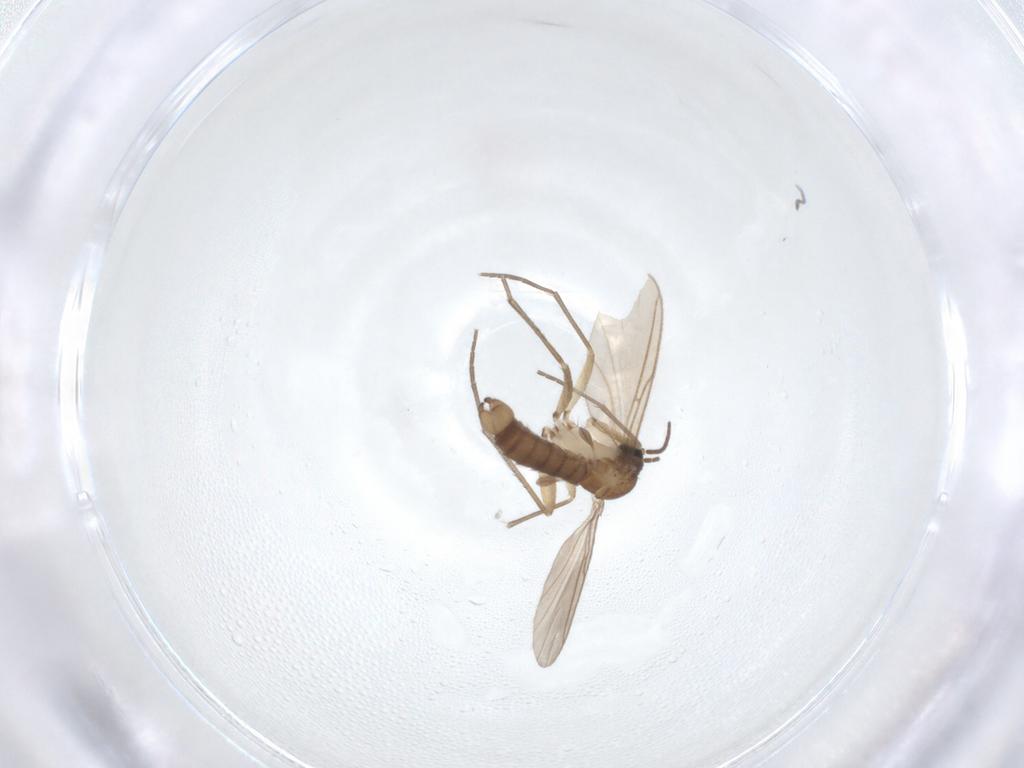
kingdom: Animalia
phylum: Arthropoda
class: Insecta
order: Diptera
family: Sciaridae
